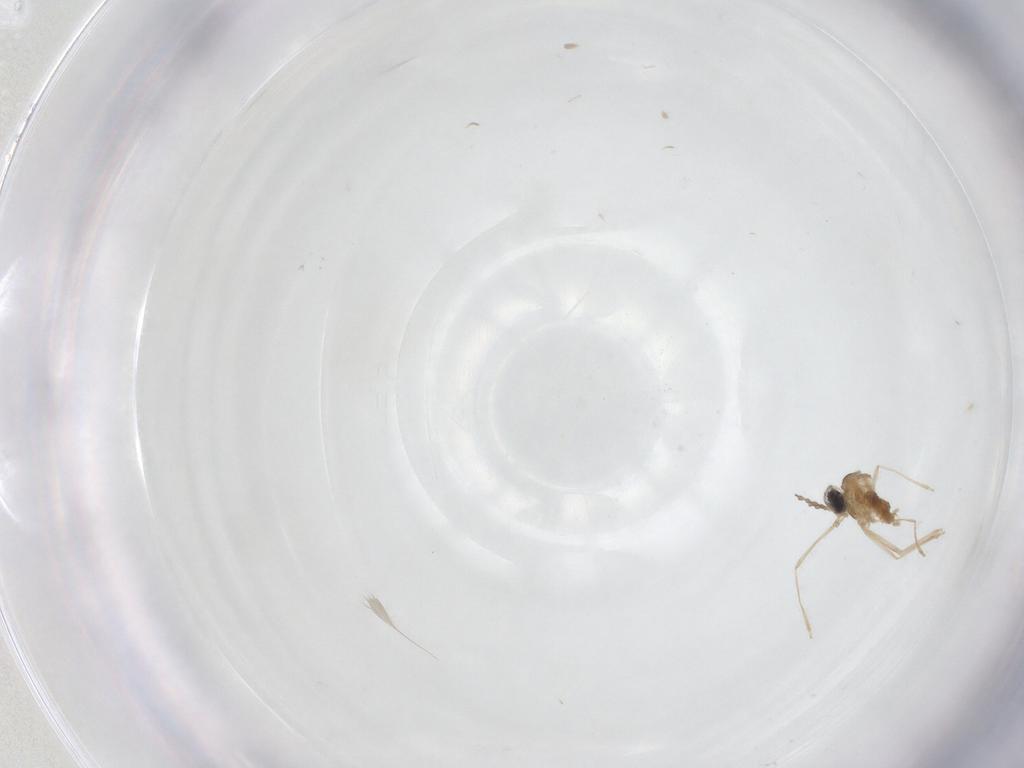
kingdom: Animalia
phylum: Arthropoda
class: Insecta
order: Diptera
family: Cecidomyiidae
